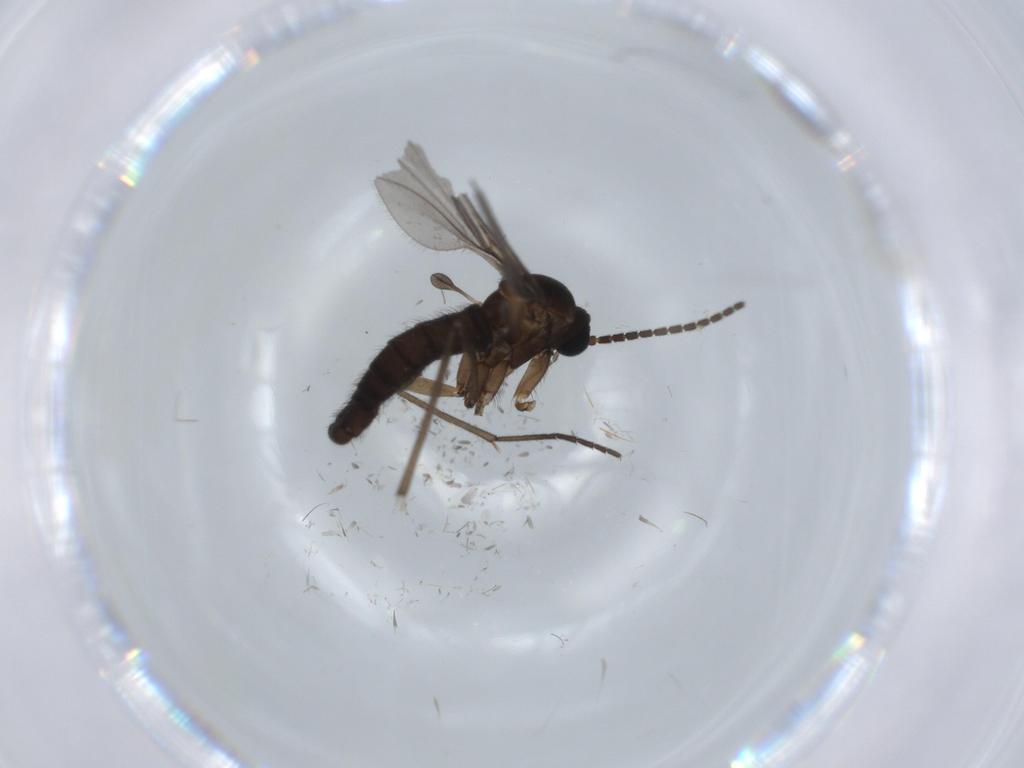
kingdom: Animalia
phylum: Arthropoda
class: Insecta
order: Diptera
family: Sciaridae
